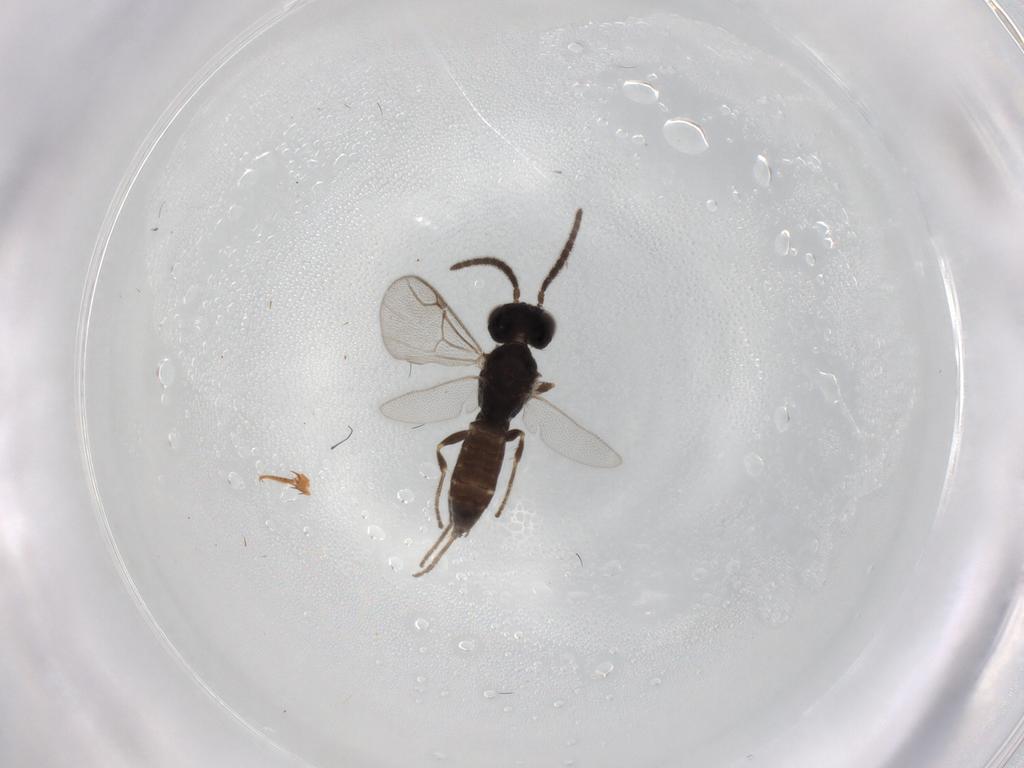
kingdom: Animalia
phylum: Arthropoda
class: Insecta
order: Hymenoptera
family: Dryinidae
